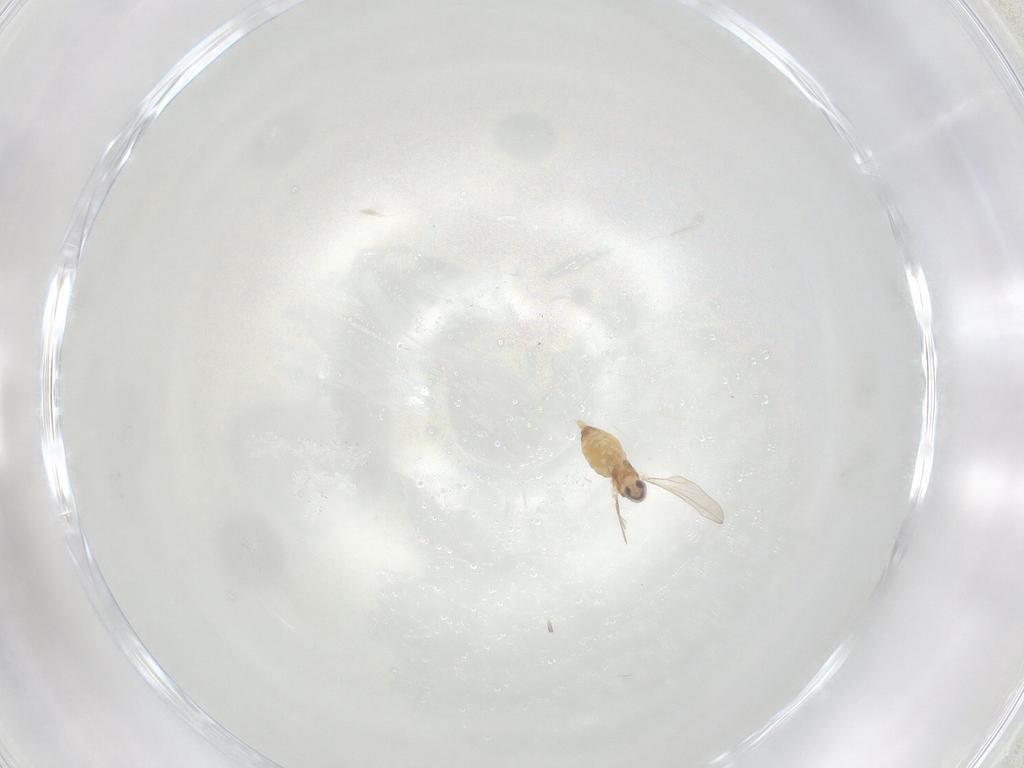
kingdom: Animalia
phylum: Arthropoda
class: Insecta
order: Diptera
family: Cecidomyiidae
